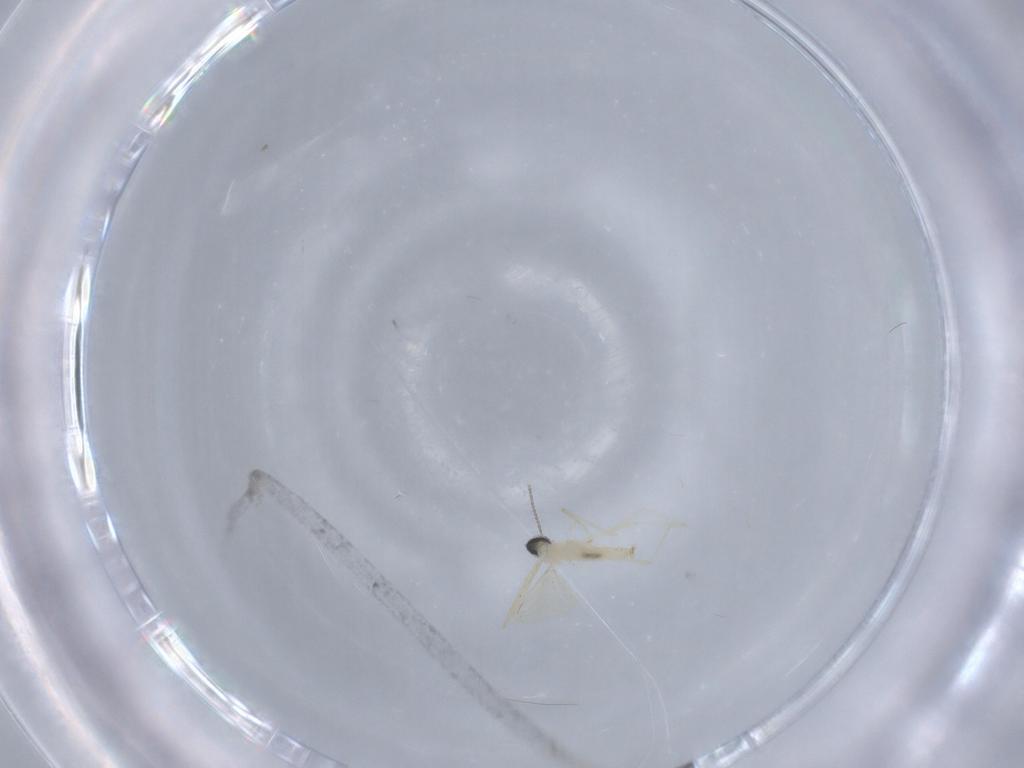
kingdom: Animalia
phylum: Arthropoda
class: Insecta
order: Diptera
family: Cecidomyiidae
